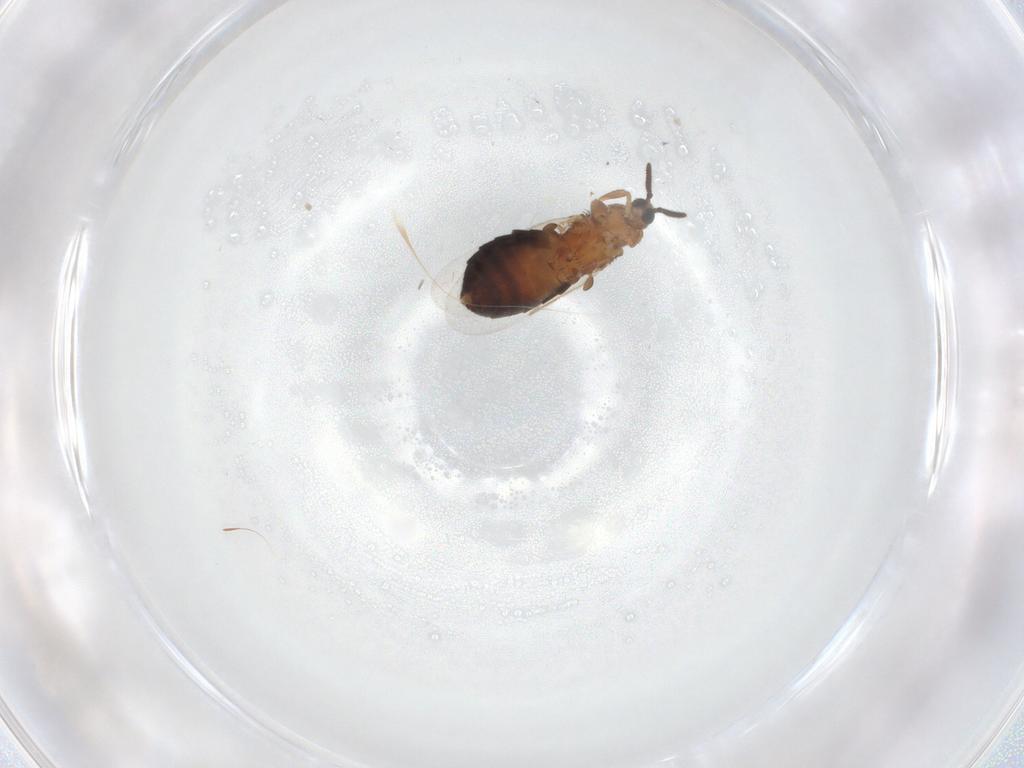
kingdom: Animalia
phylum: Arthropoda
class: Insecta
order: Diptera
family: Scatopsidae
